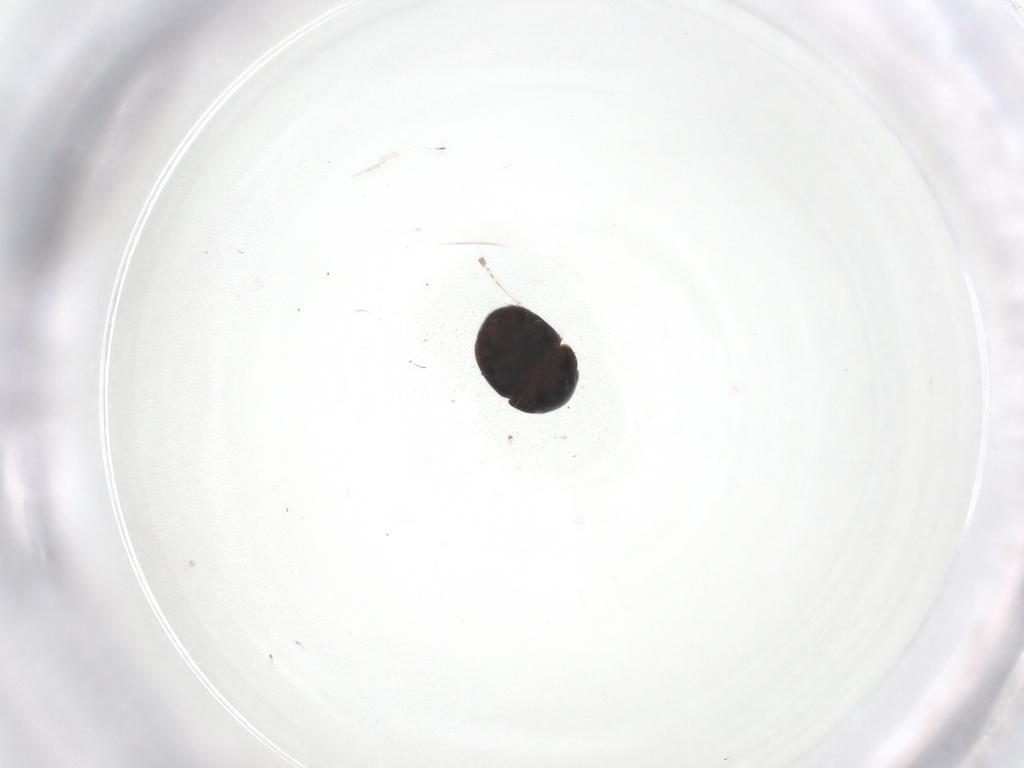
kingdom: Animalia
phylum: Arthropoda
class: Insecta
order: Coleoptera
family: Cybocephalidae
